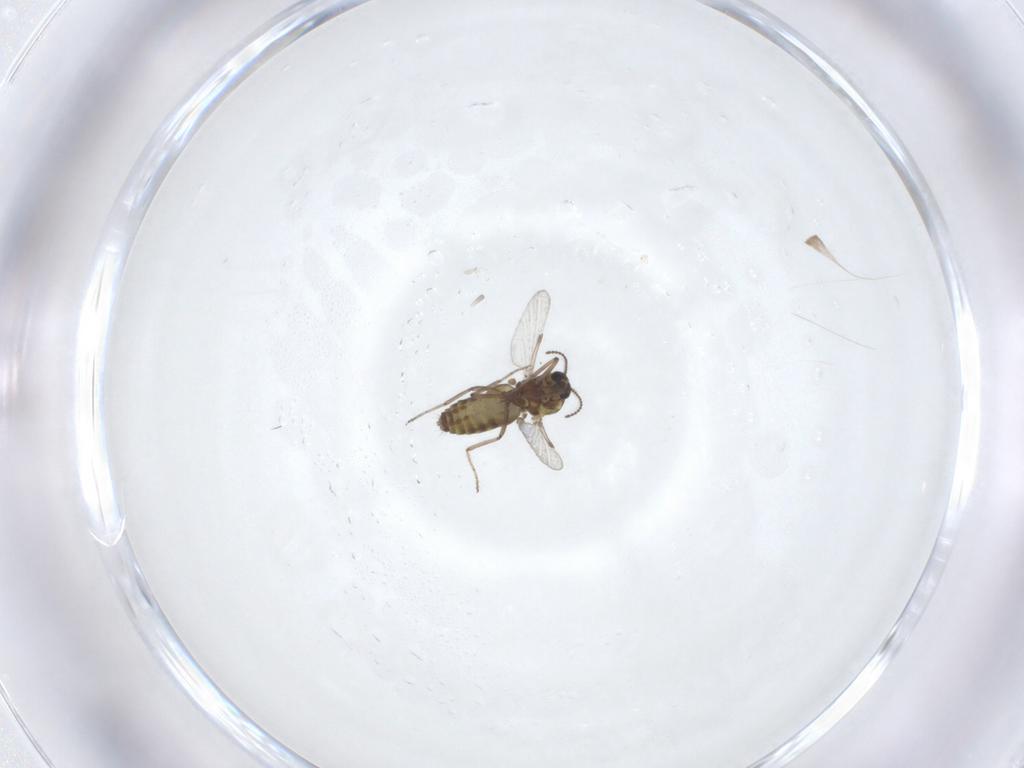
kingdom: Animalia
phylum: Arthropoda
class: Insecta
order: Diptera
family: Ceratopogonidae
